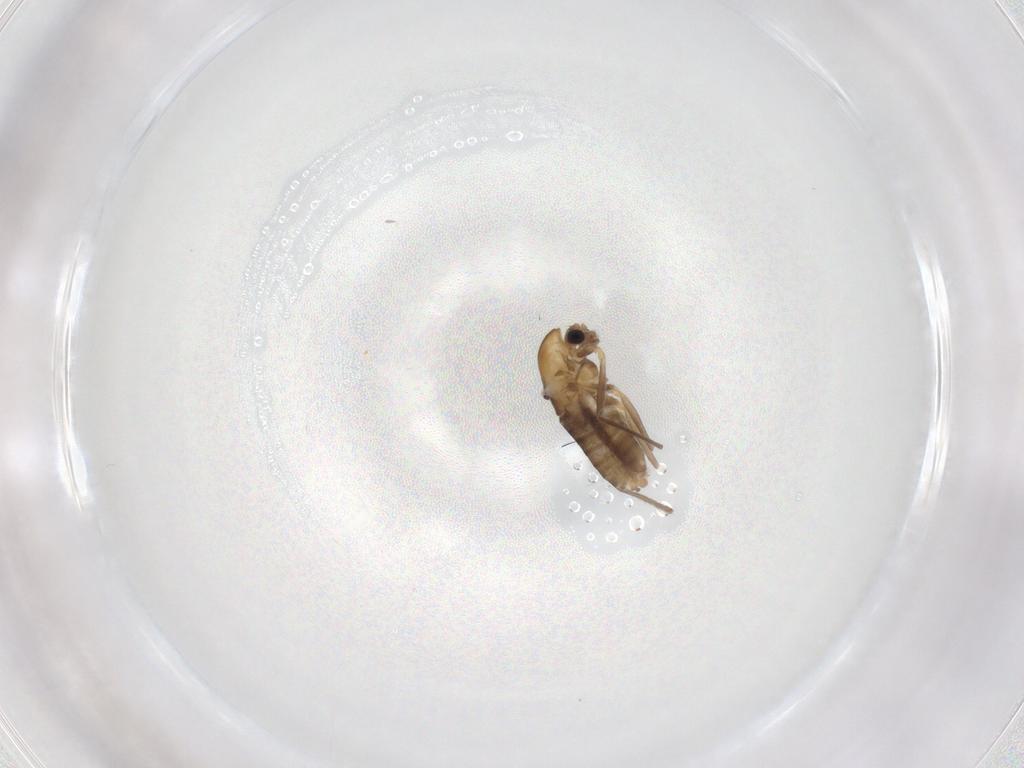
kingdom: Animalia
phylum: Arthropoda
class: Insecta
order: Diptera
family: Chironomidae
